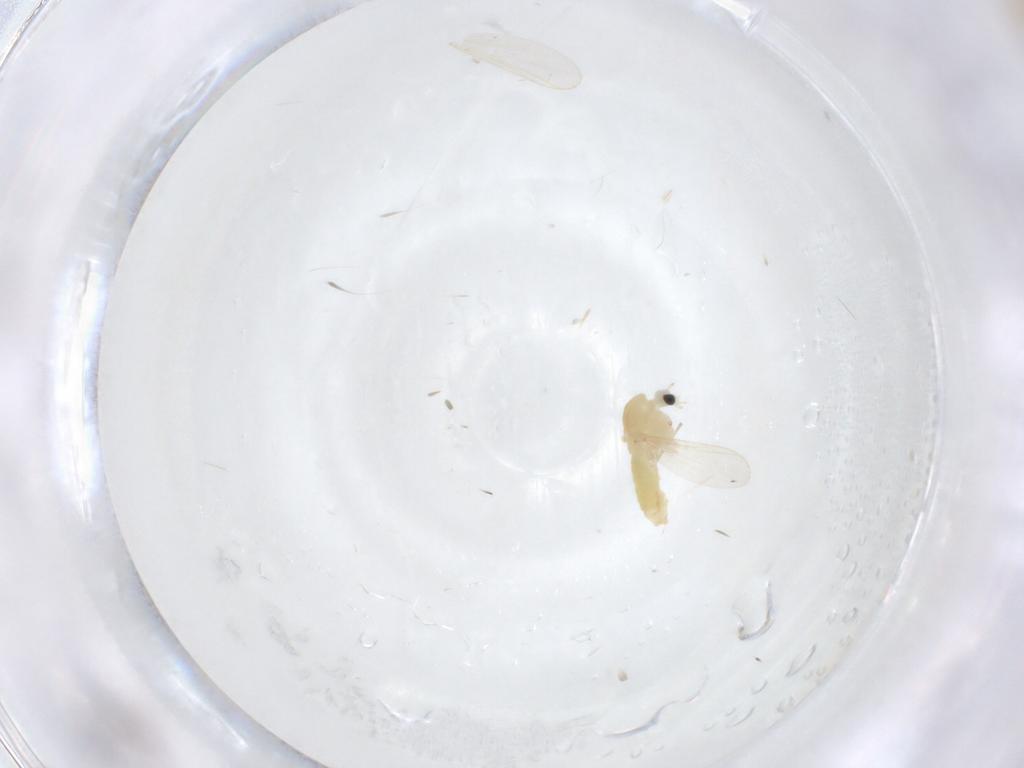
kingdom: Animalia
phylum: Arthropoda
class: Insecta
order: Diptera
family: Chironomidae
